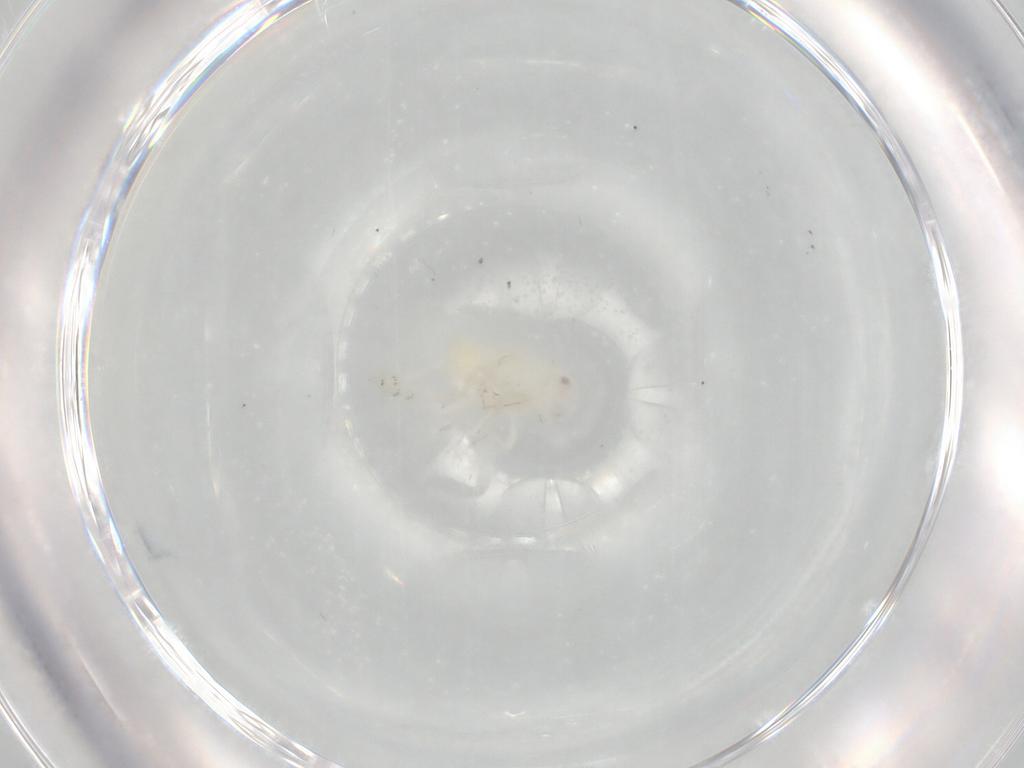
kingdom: Animalia
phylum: Arthropoda
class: Insecta
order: Hemiptera
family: Flatidae
